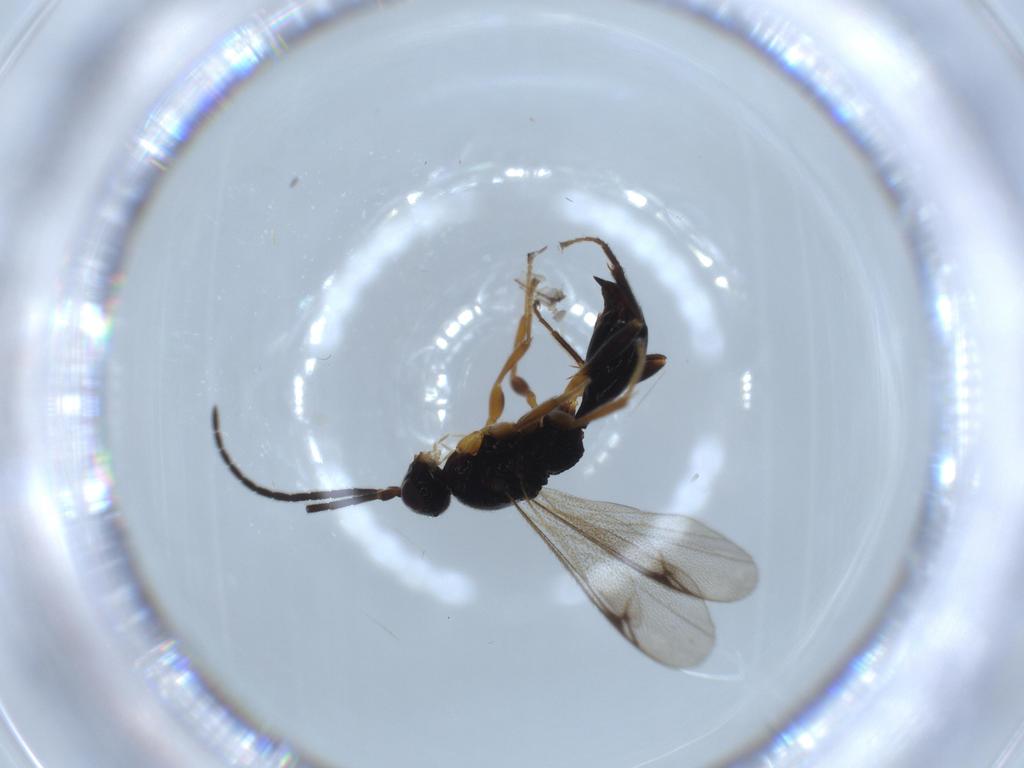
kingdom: Animalia
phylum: Arthropoda
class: Insecta
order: Hymenoptera
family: Proctotrupidae
